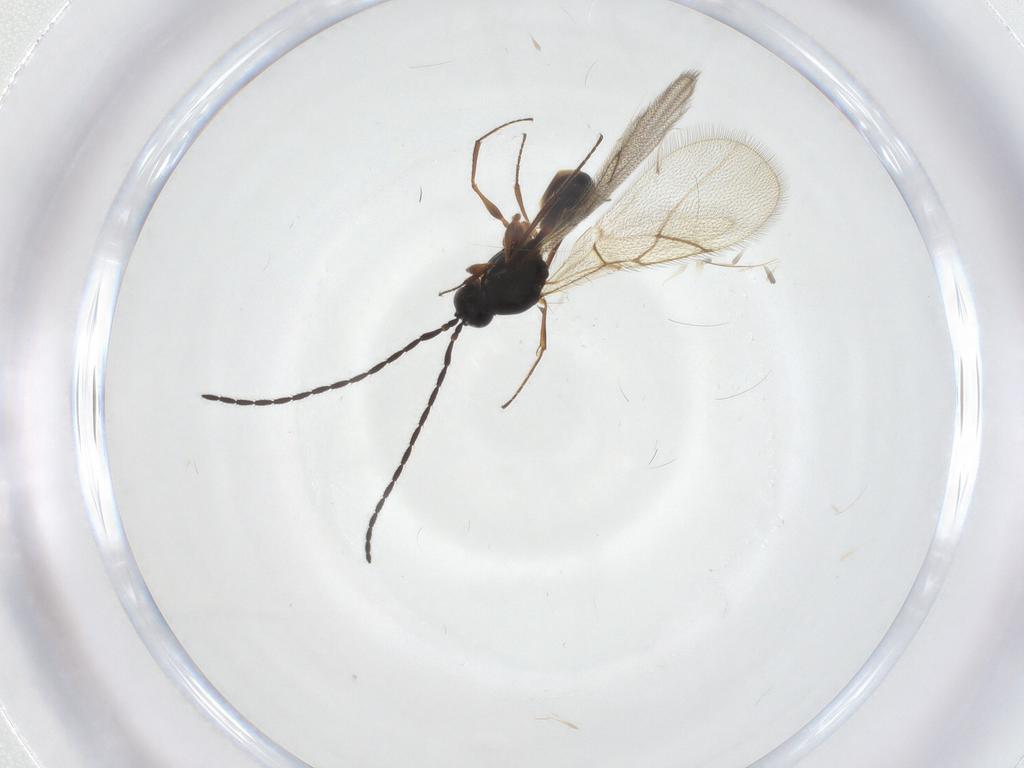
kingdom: Animalia
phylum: Arthropoda
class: Insecta
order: Hymenoptera
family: Figitidae
